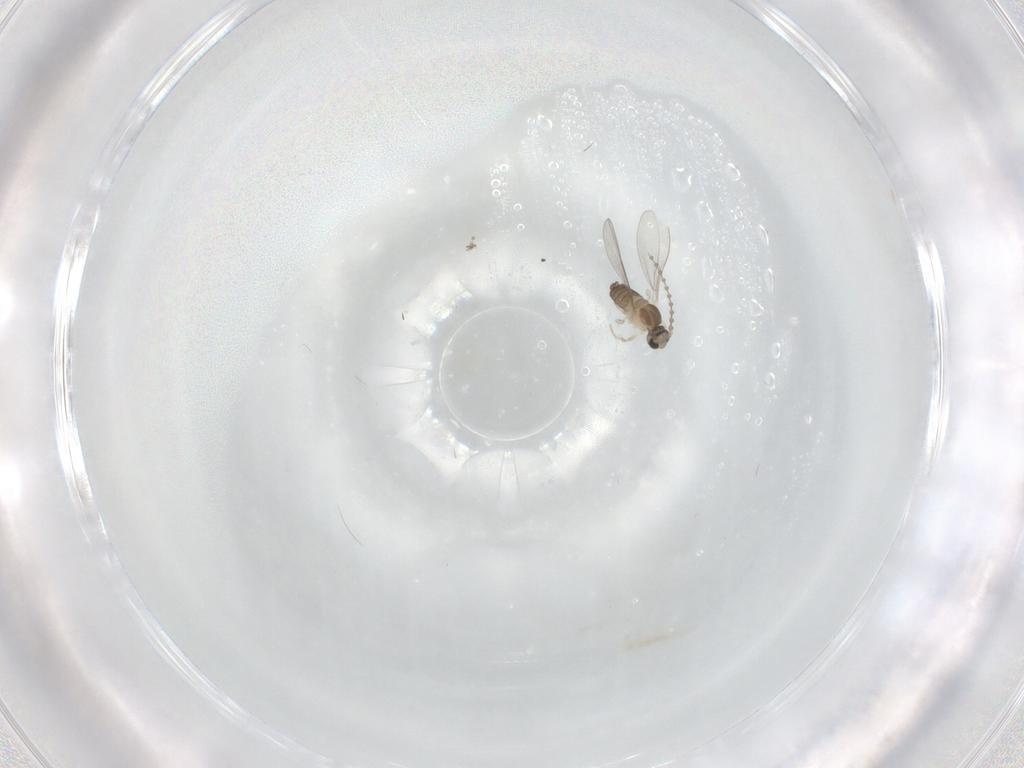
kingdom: Animalia
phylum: Arthropoda
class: Insecta
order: Diptera
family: Cecidomyiidae
